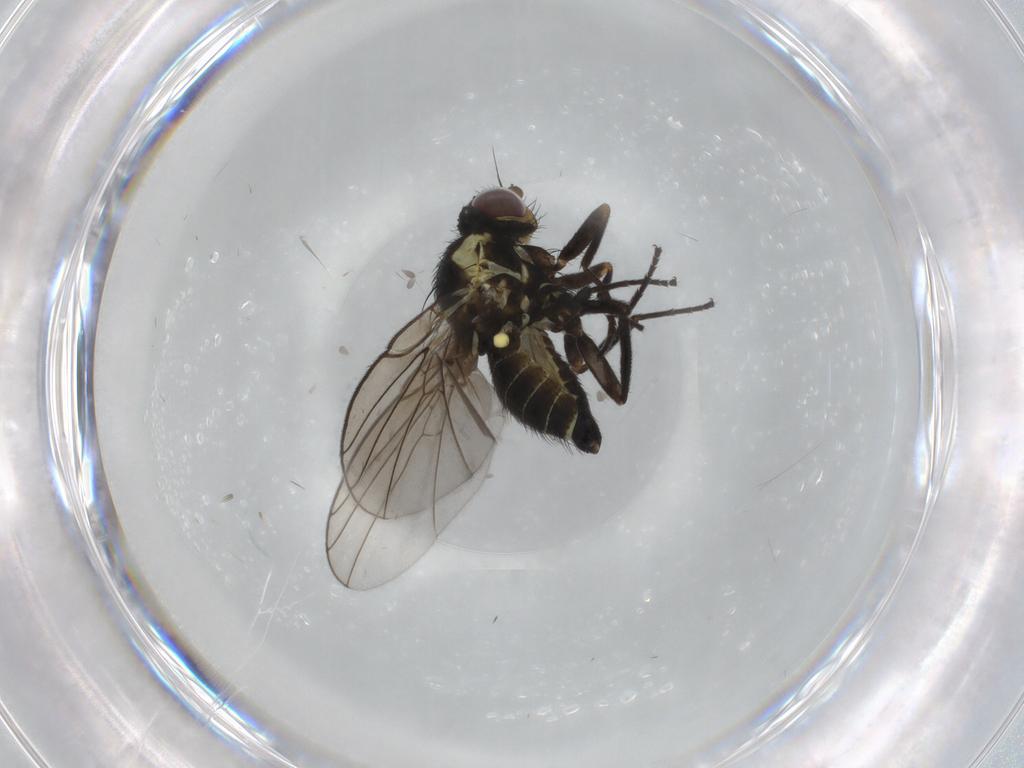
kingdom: Animalia
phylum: Arthropoda
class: Insecta
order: Diptera
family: Agromyzidae
